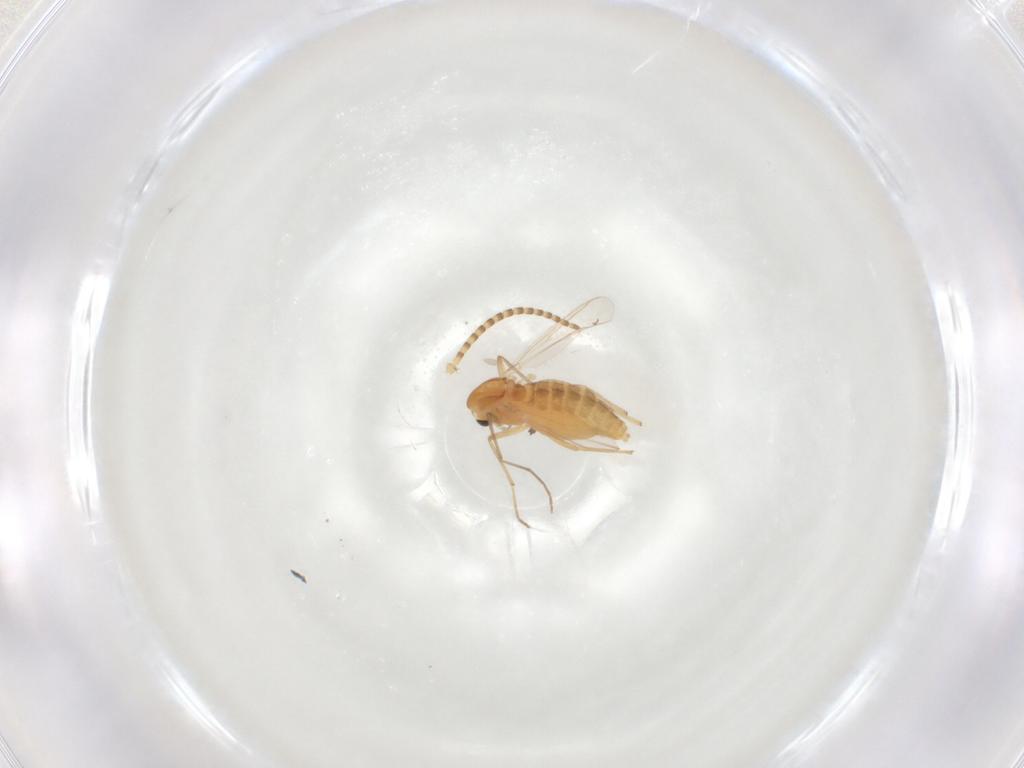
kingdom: Animalia
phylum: Arthropoda
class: Insecta
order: Diptera
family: Chironomidae
